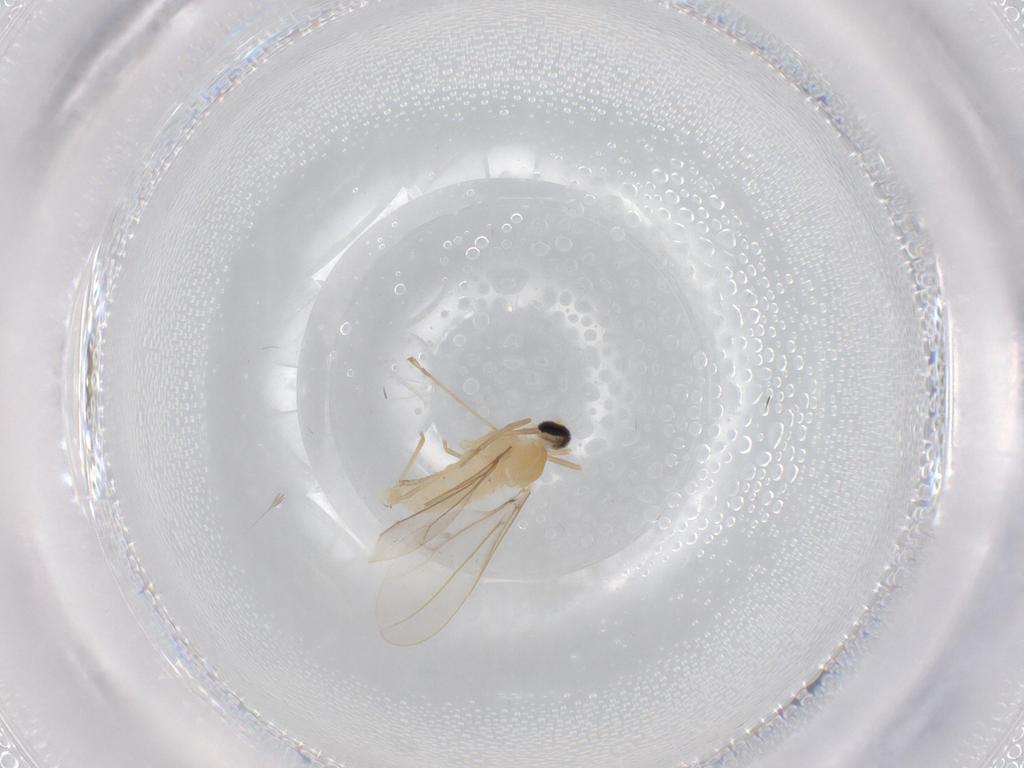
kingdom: Animalia
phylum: Arthropoda
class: Insecta
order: Diptera
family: Cecidomyiidae
